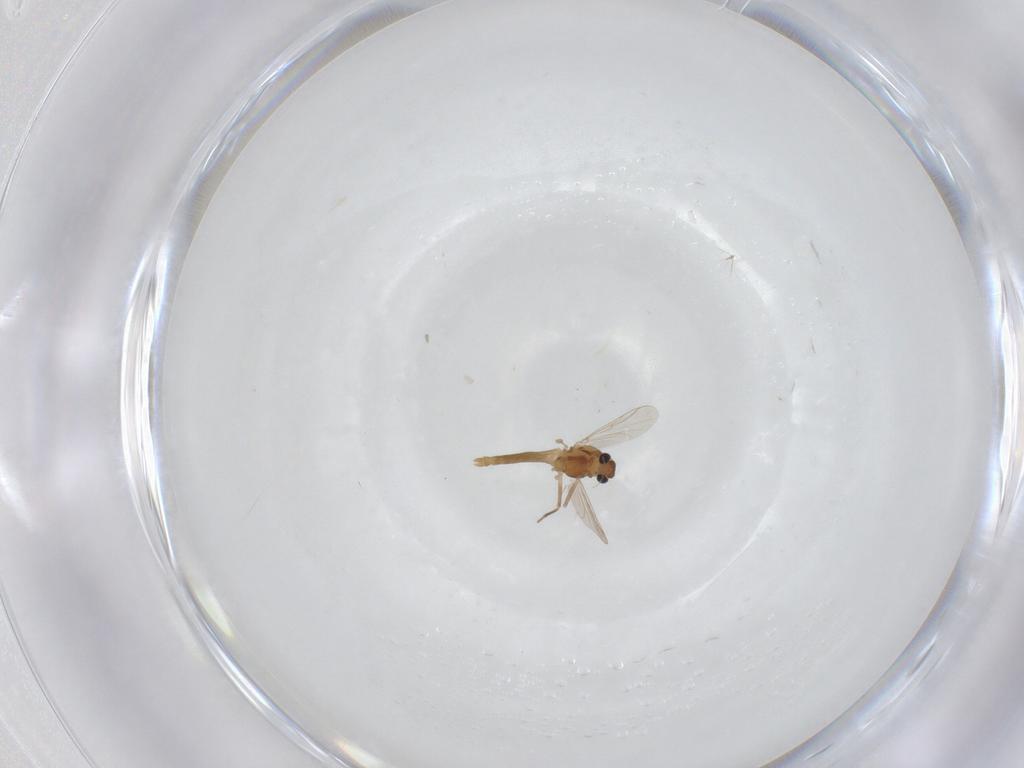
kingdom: Animalia
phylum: Arthropoda
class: Insecta
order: Diptera
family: Chironomidae
